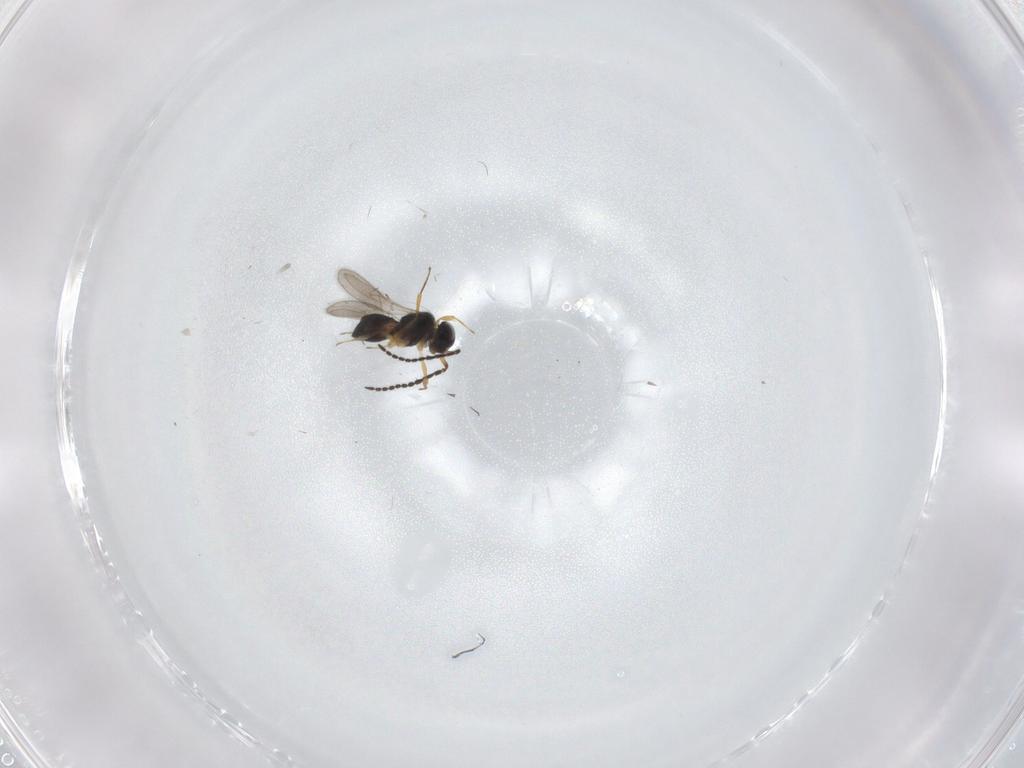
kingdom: Animalia
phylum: Arthropoda
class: Insecta
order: Hymenoptera
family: Scelionidae
